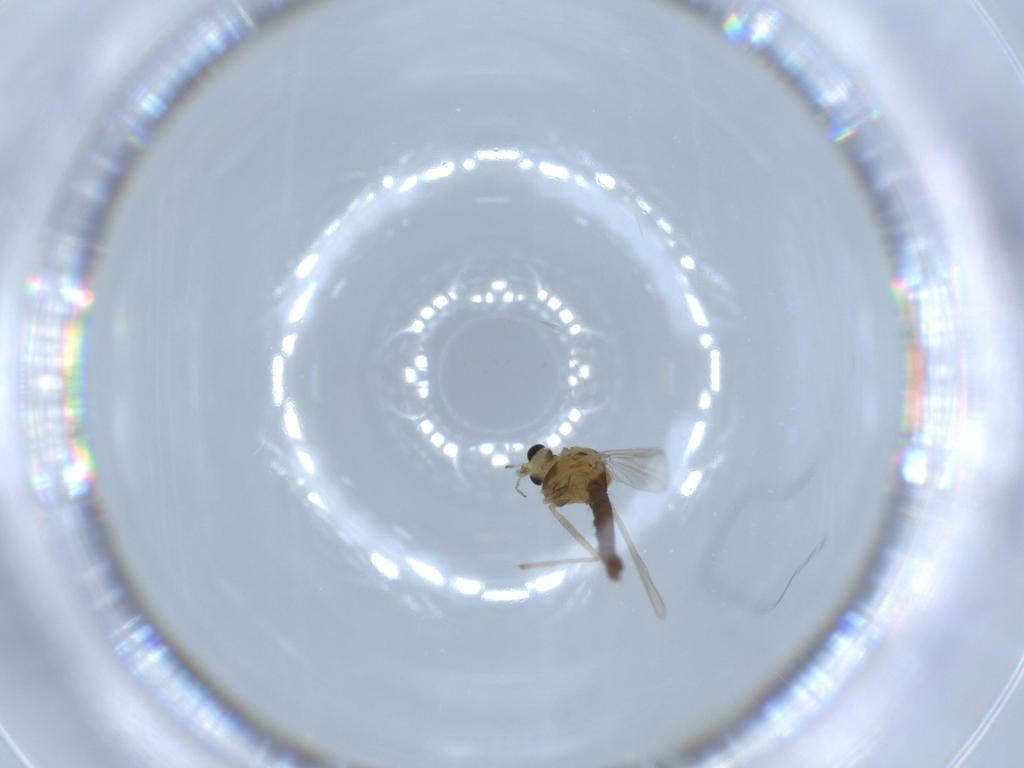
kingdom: Animalia
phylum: Arthropoda
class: Insecta
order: Diptera
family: Chironomidae
